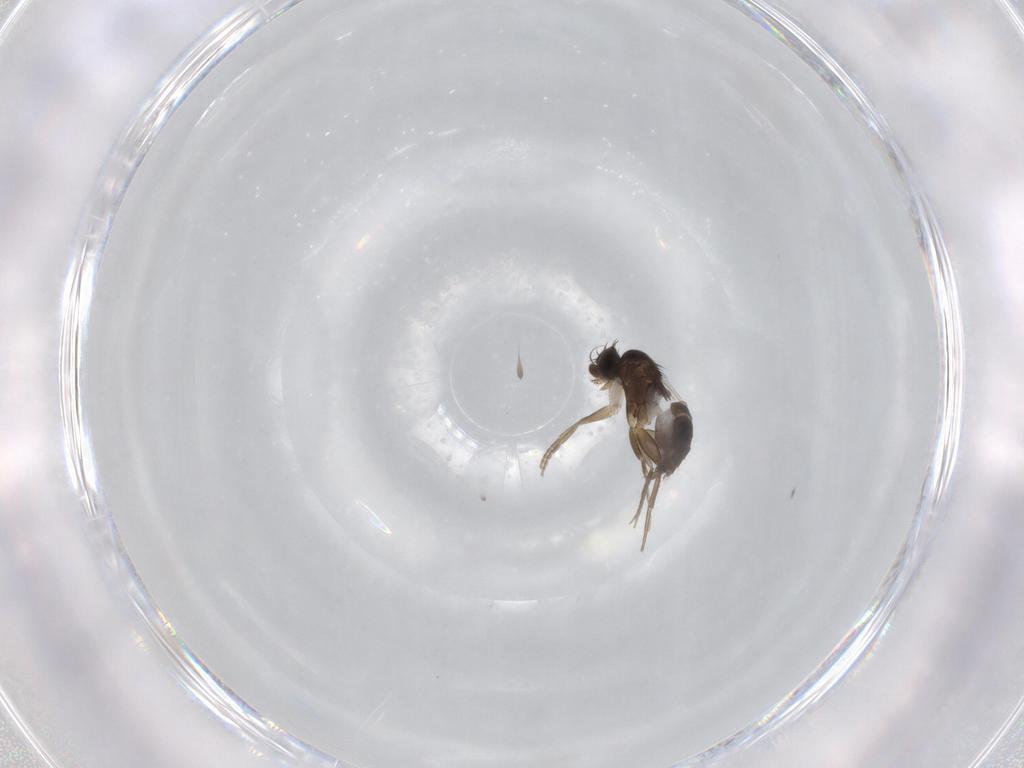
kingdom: Animalia
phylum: Arthropoda
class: Insecta
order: Diptera
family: Phoridae
